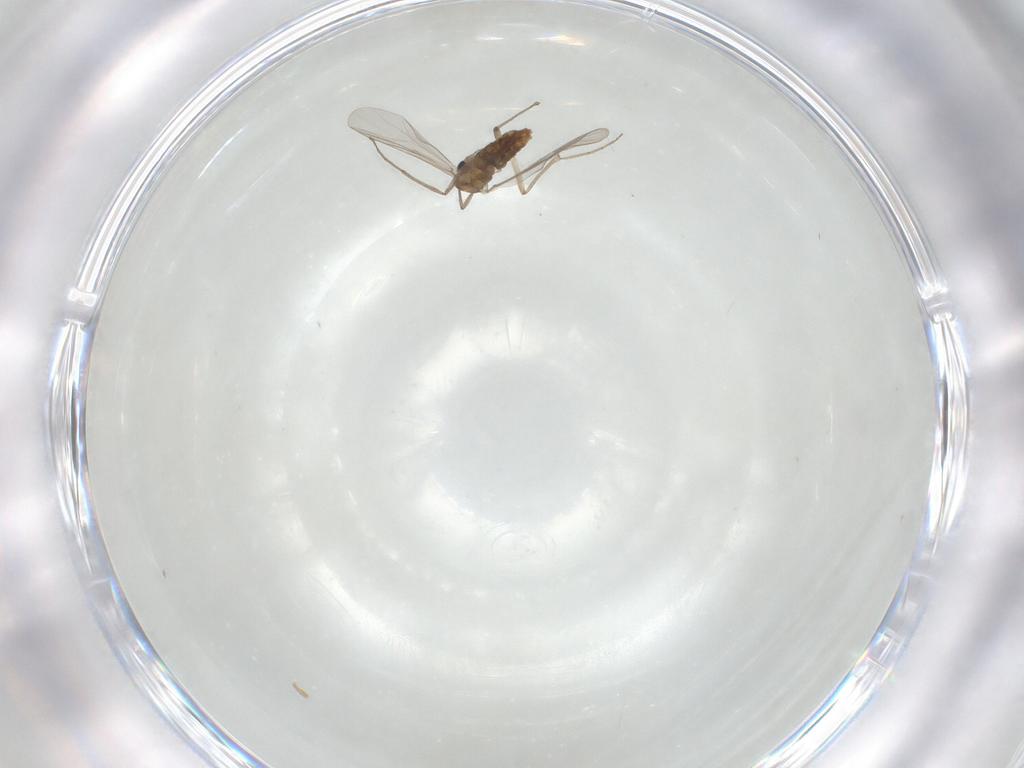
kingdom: Animalia
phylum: Arthropoda
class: Insecta
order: Diptera
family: Chironomidae
